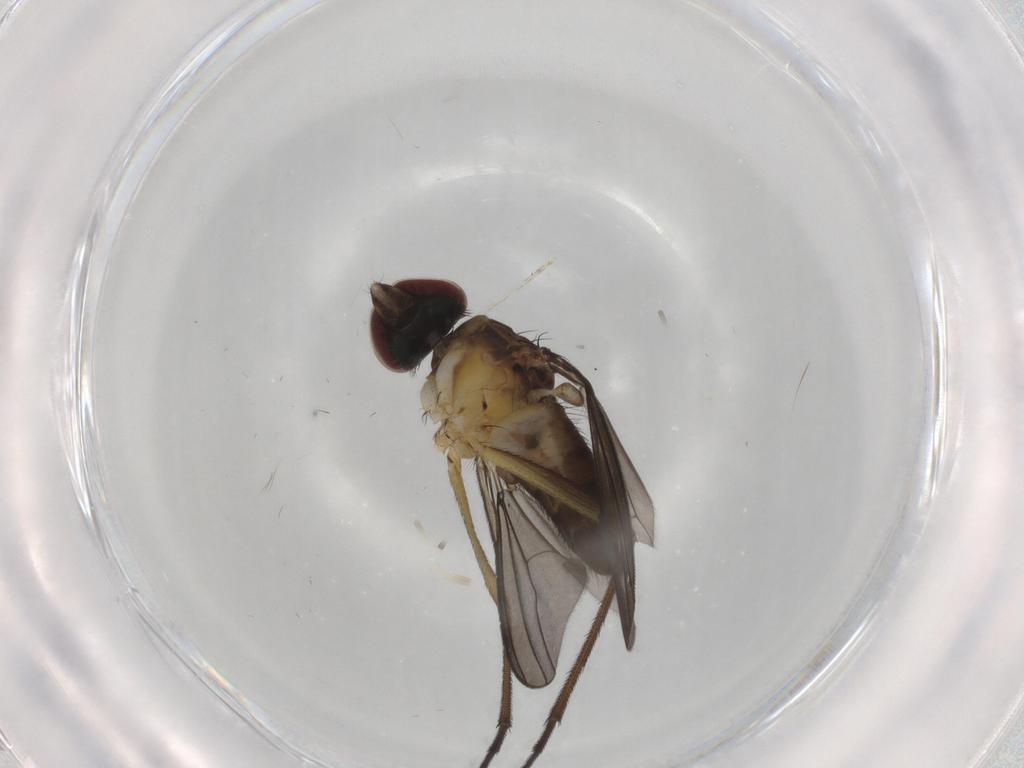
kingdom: Animalia
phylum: Arthropoda
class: Insecta
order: Diptera
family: Dolichopodidae
